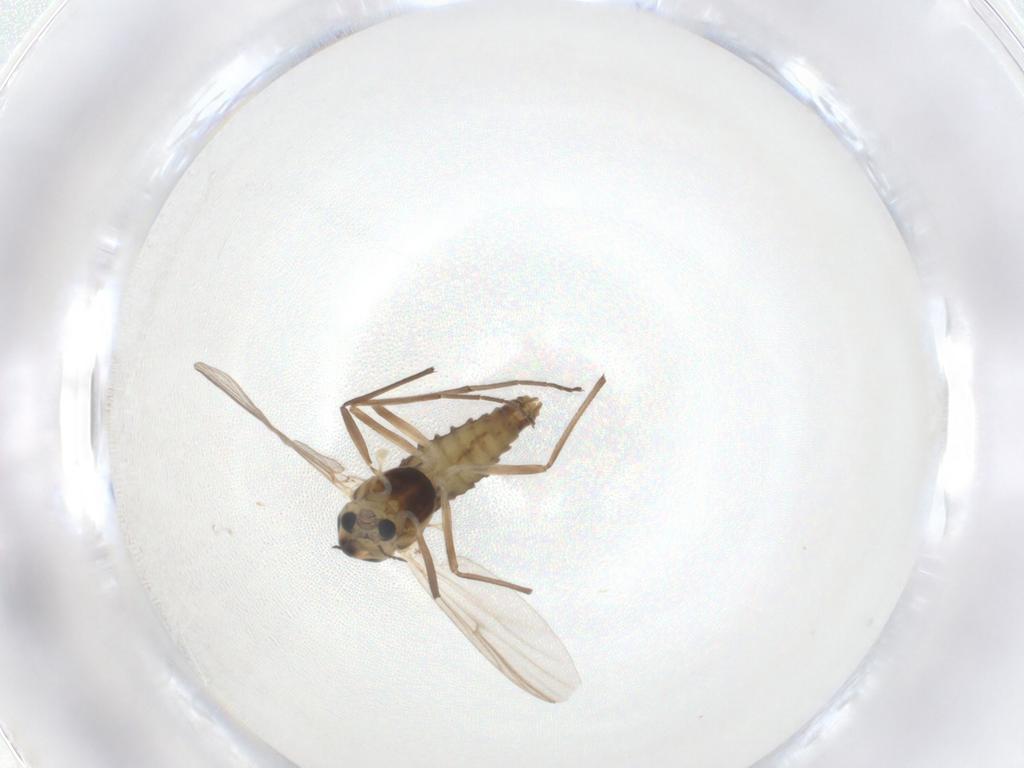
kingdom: Animalia
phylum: Arthropoda
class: Insecta
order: Diptera
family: Chironomidae
